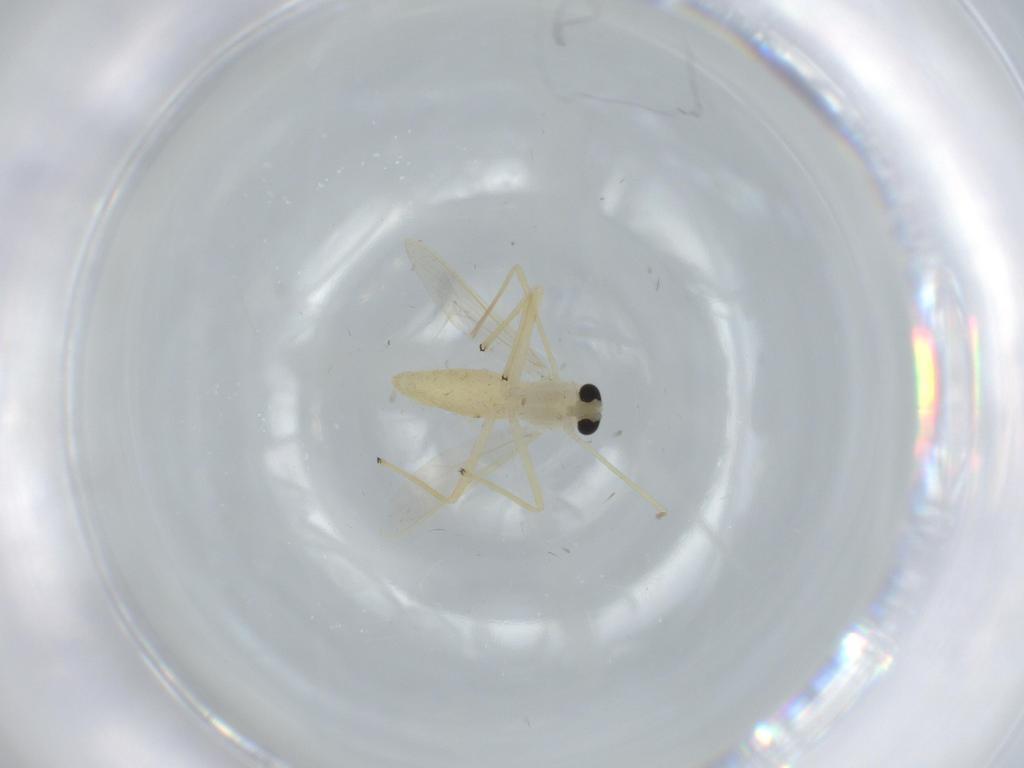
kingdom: Animalia
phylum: Arthropoda
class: Insecta
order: Diptera
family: Chironomidae
